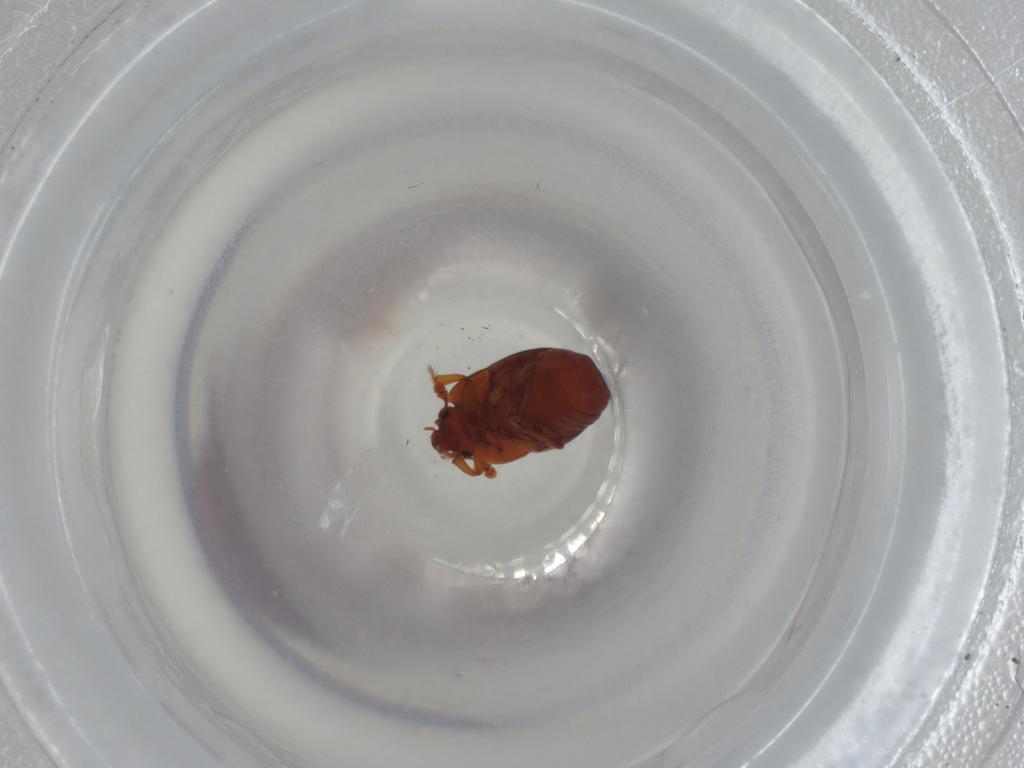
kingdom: Animalia
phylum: Arthropoda
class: Insecta
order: Coleoptera
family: Nitidulidae
